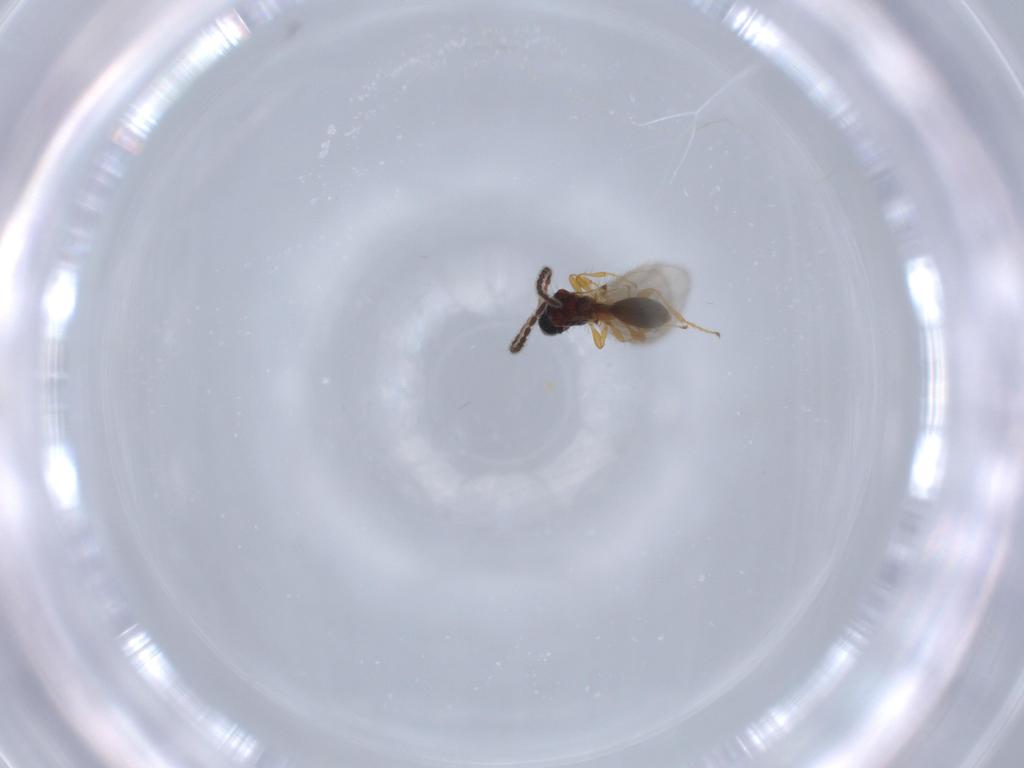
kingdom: Animalia
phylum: Arthropoda
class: Insecta
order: Hymenoptera
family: Diapriidae
